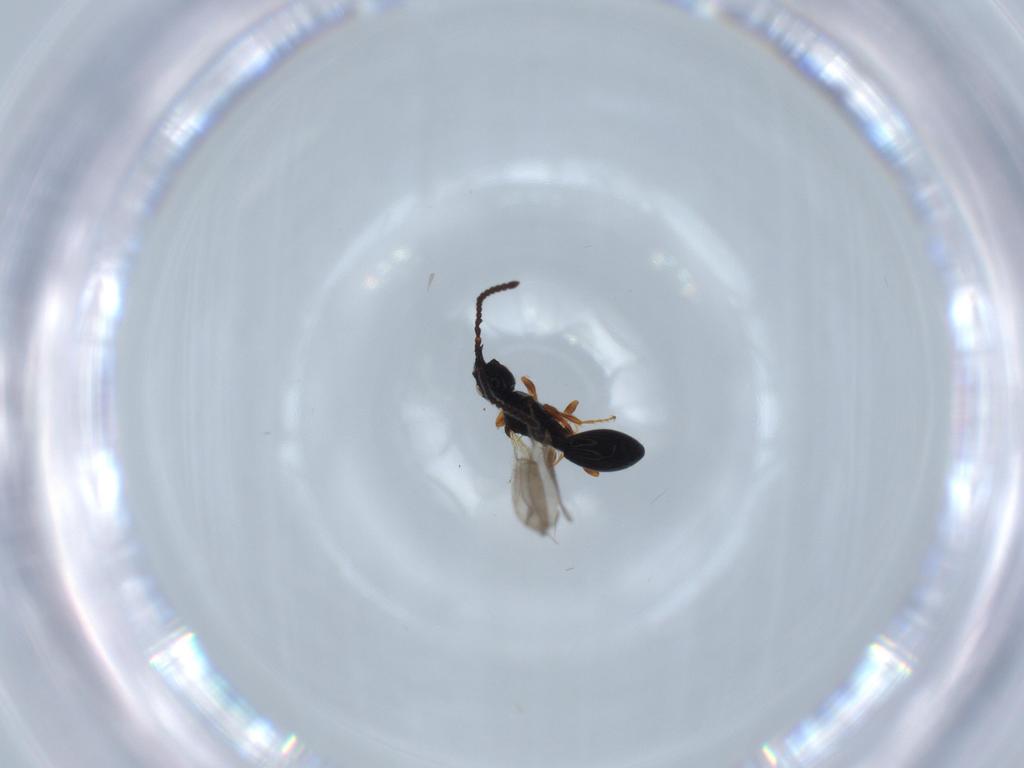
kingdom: Animalia
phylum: Arthropoda
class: Insecta
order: Hymenoptera
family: Diapriidae
